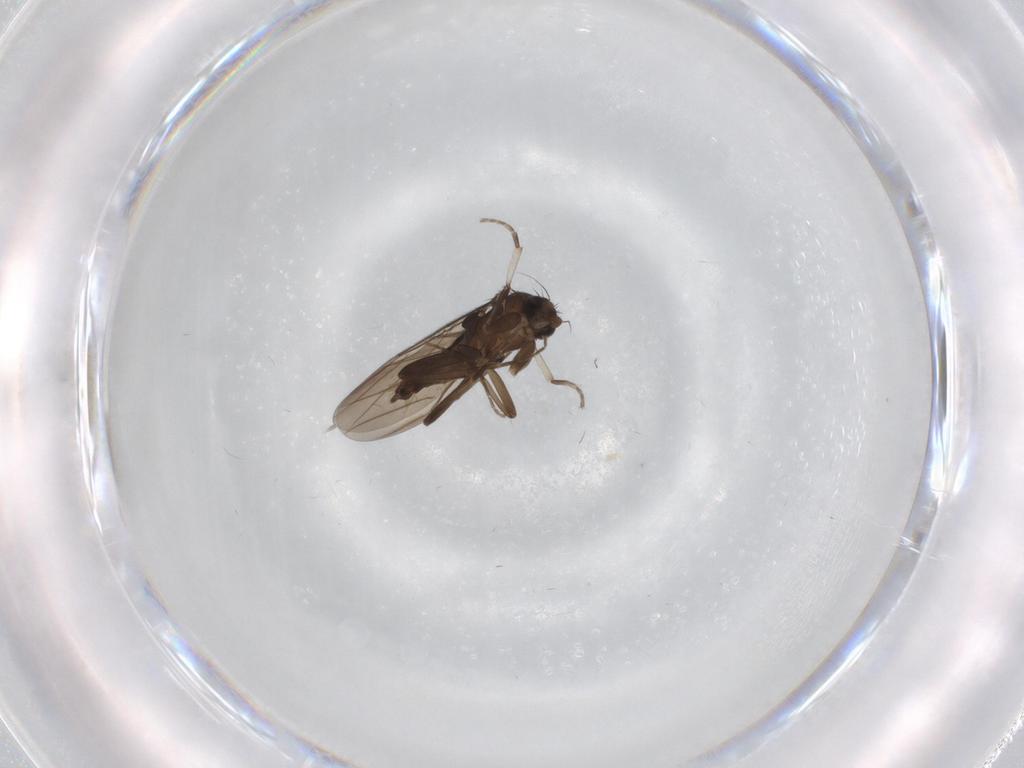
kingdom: Animalia
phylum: Arthropoda
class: Insecta
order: Diptera
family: Phoridae
